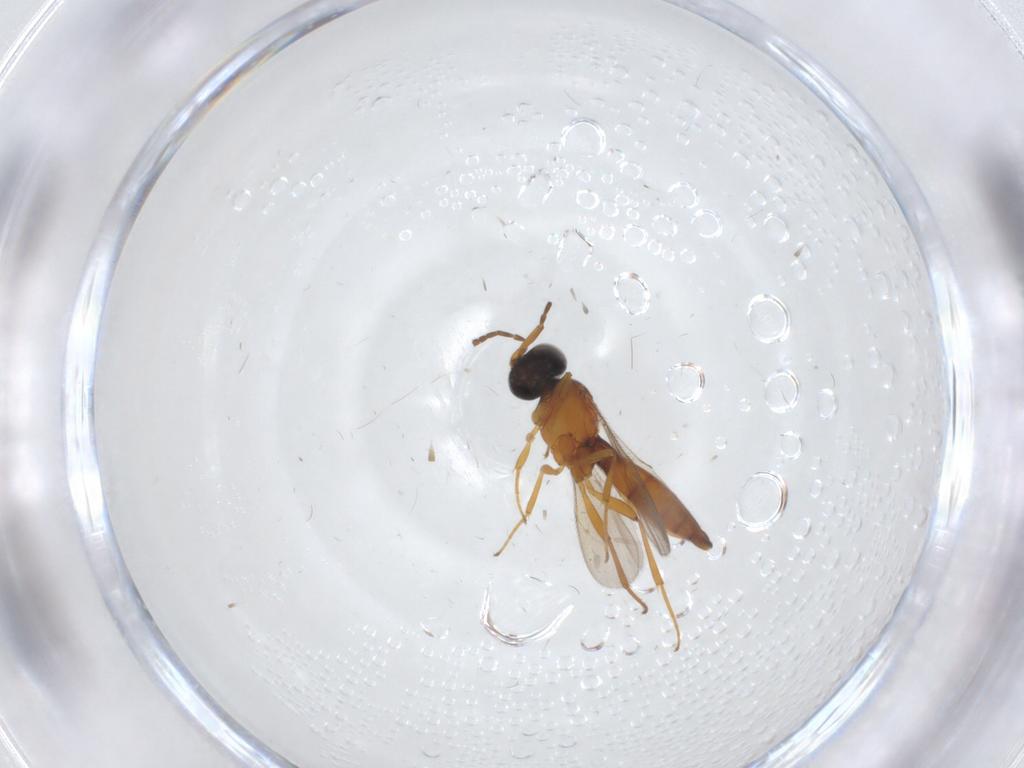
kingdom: Animalia
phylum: Arthropoda
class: Insecta
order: Hymenoptera
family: Scelionidae
